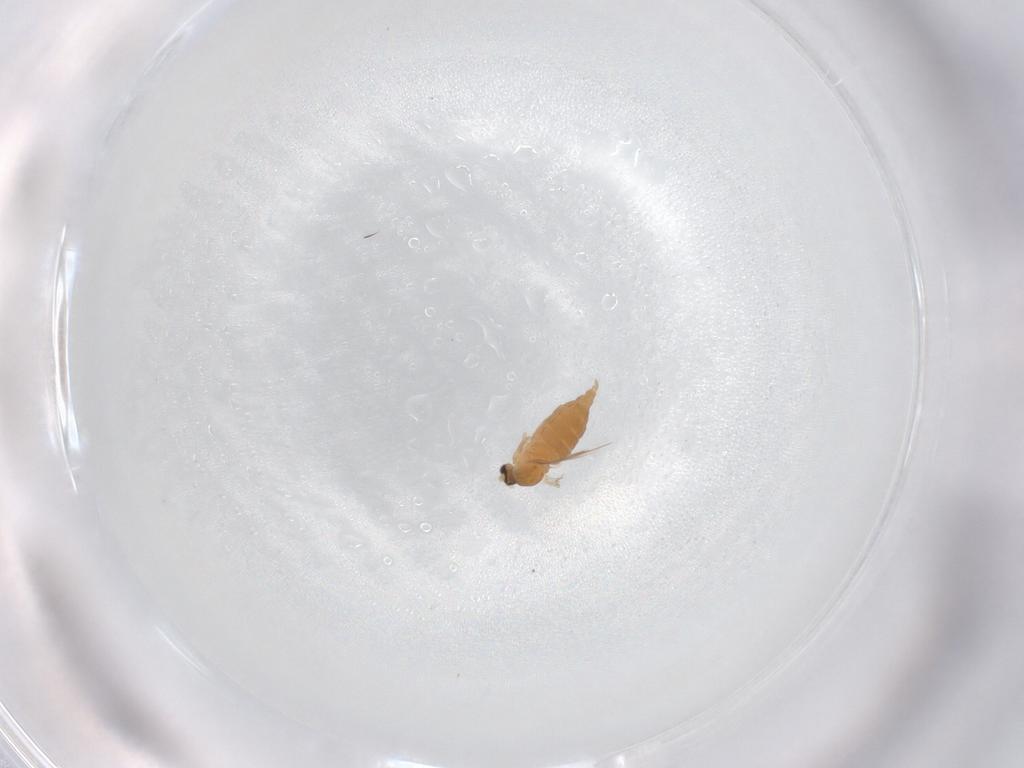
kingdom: Animalia
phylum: Arthropoda
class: Insecta
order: Diptera
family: Cecidomyiidae
